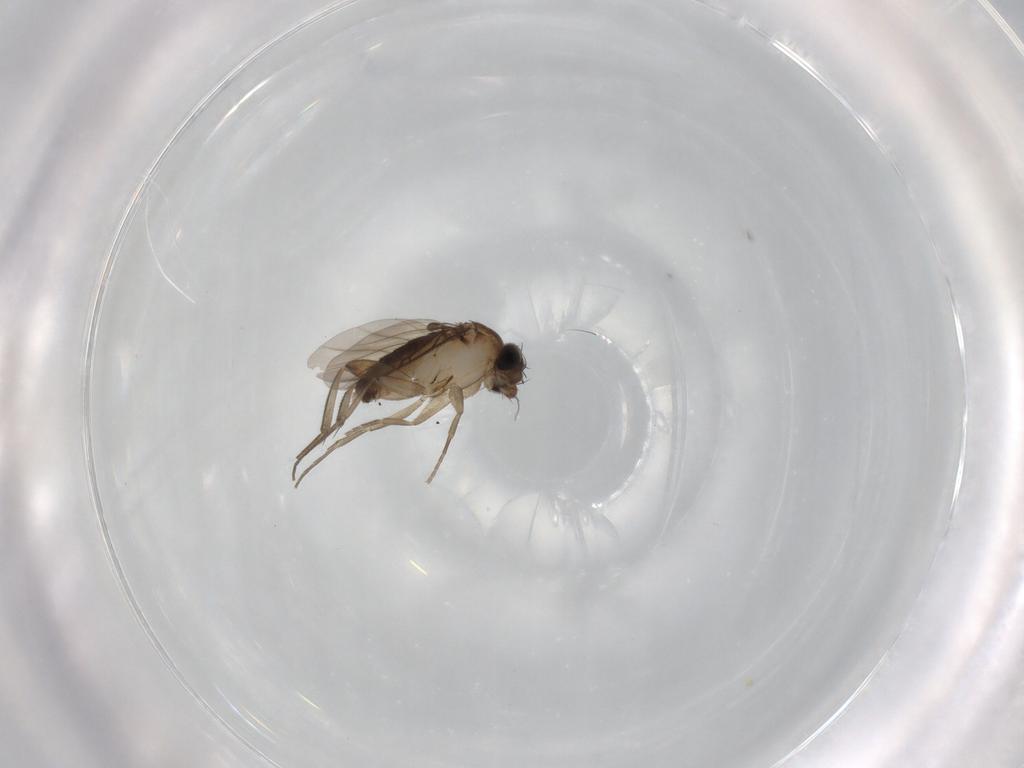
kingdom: Animalia
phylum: Arthropoda
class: Insecta
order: Diptera
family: Phoridae
